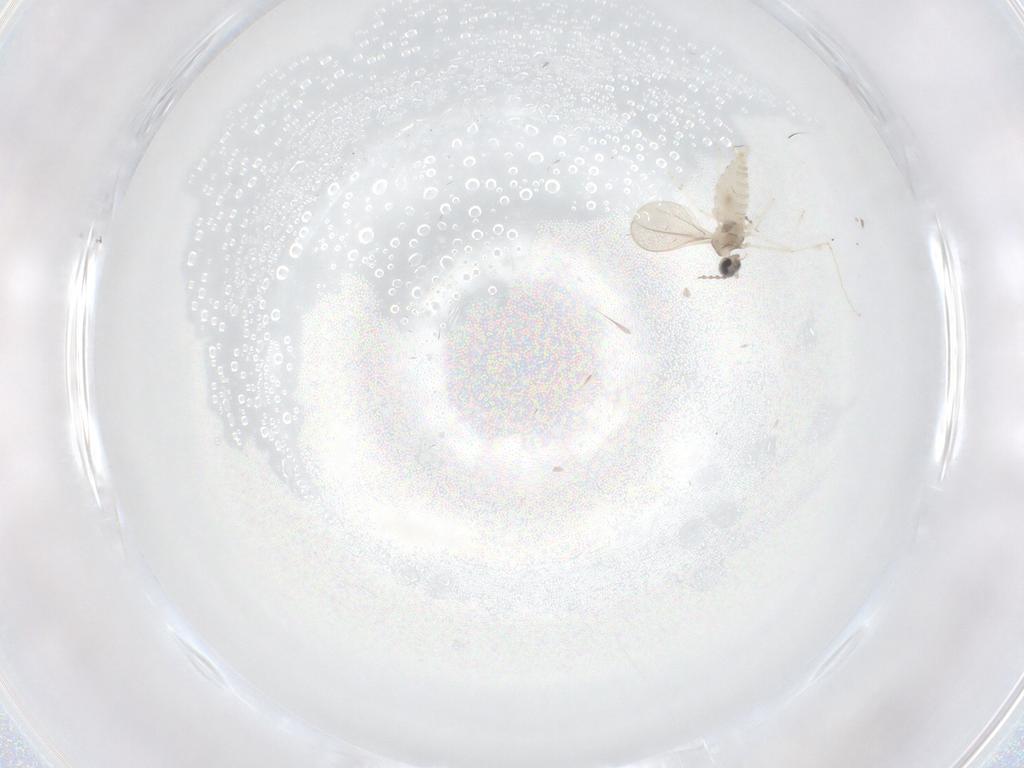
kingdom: Animalia
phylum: Arthropoda
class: Insecta
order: Diptera
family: Cecidomyiidae
